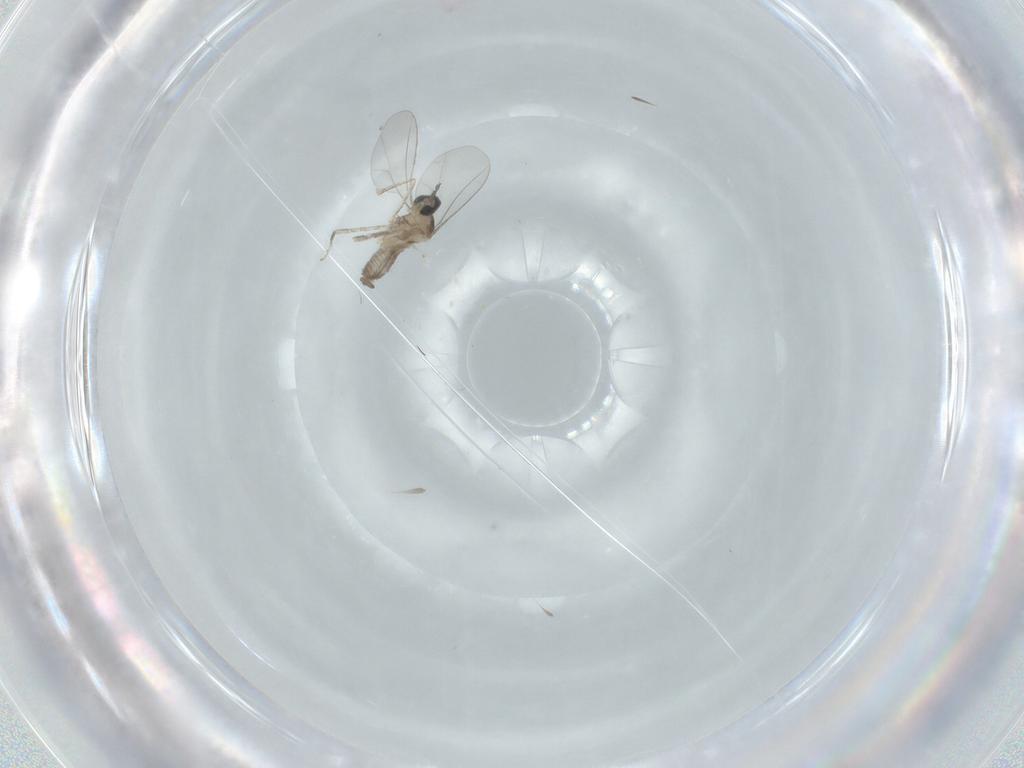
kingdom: Animalia
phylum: Arthropoda
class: Insecta
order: Diptera
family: Cecidomyiidae
